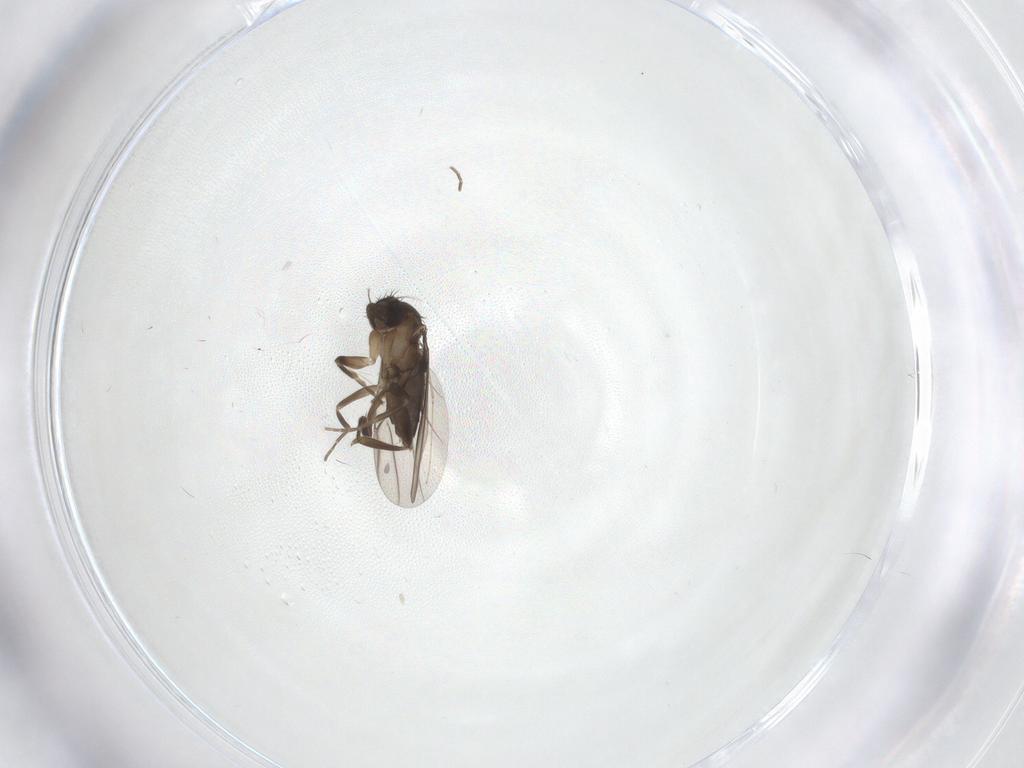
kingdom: Animalia
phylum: Arthropoda
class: Insecta
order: Diptera
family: Phoridae
